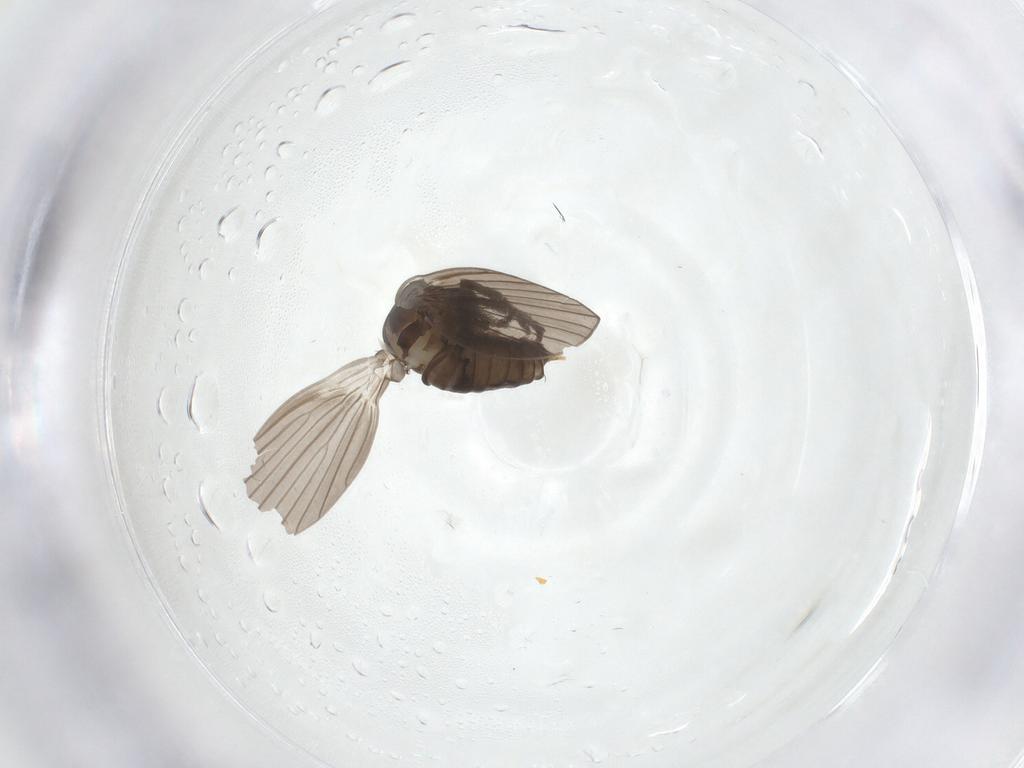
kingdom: Animalia
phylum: Arthropoda
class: Insecta
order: Diptera
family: Psychodidae
